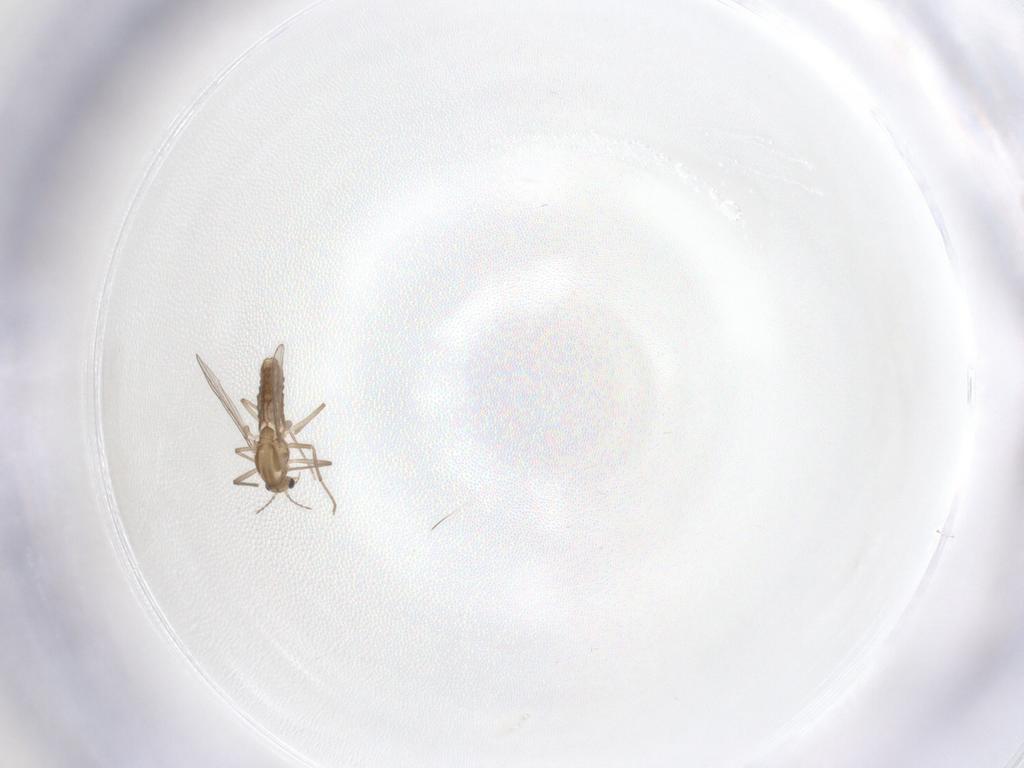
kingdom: Animalia
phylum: Arthropoda
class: Insecta
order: Diptera
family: Chironomidae
